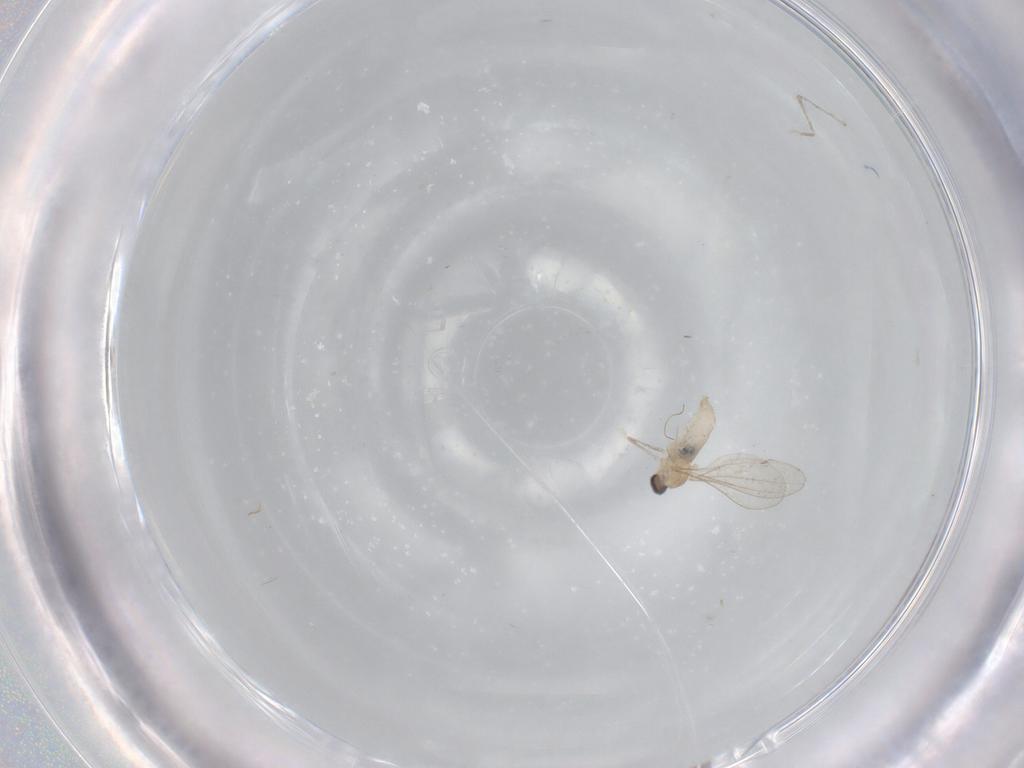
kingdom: Animalia
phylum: Arthropoda
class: Insecta
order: Diptera
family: Cecidomyiidae
